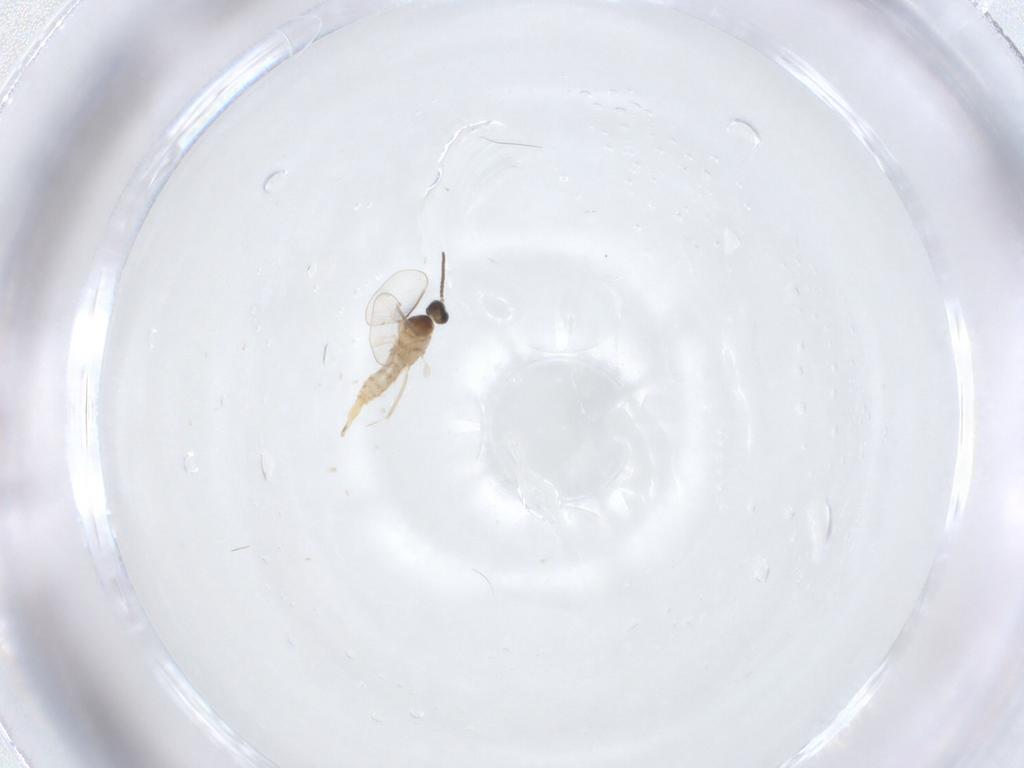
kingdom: Animalia
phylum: Arthropoda
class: Insecta
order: Diptera
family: Cecidomyiidae
